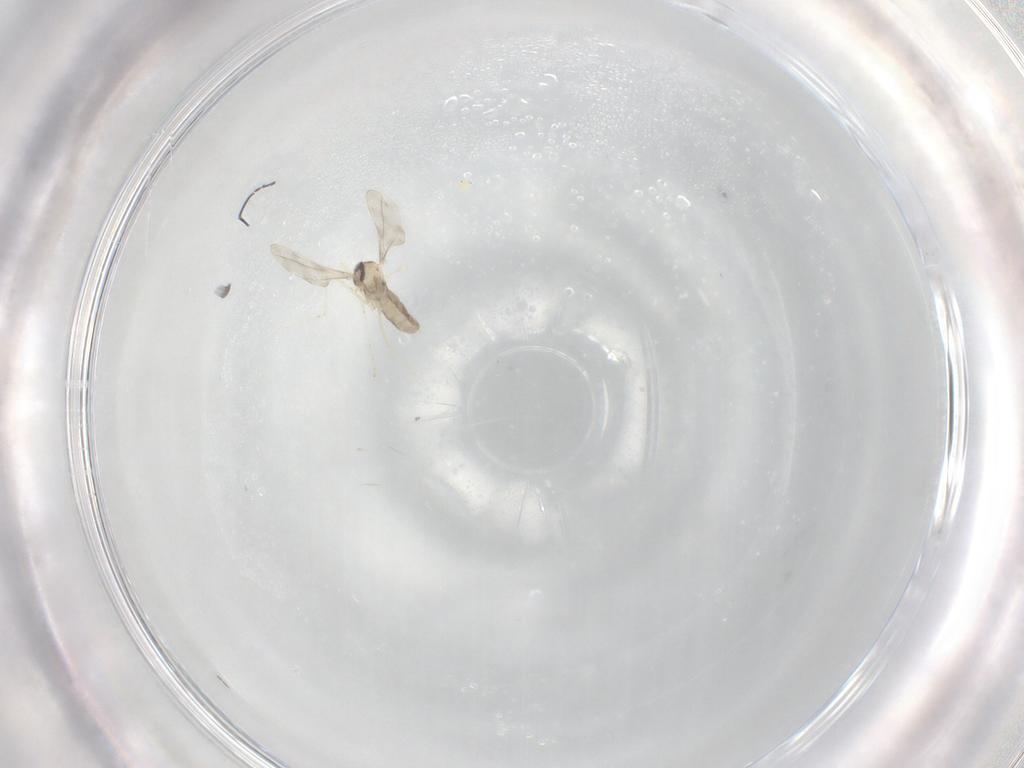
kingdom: Animalia
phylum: Arthropoda
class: Insecta
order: Diptera
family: Cecidomyiidae
